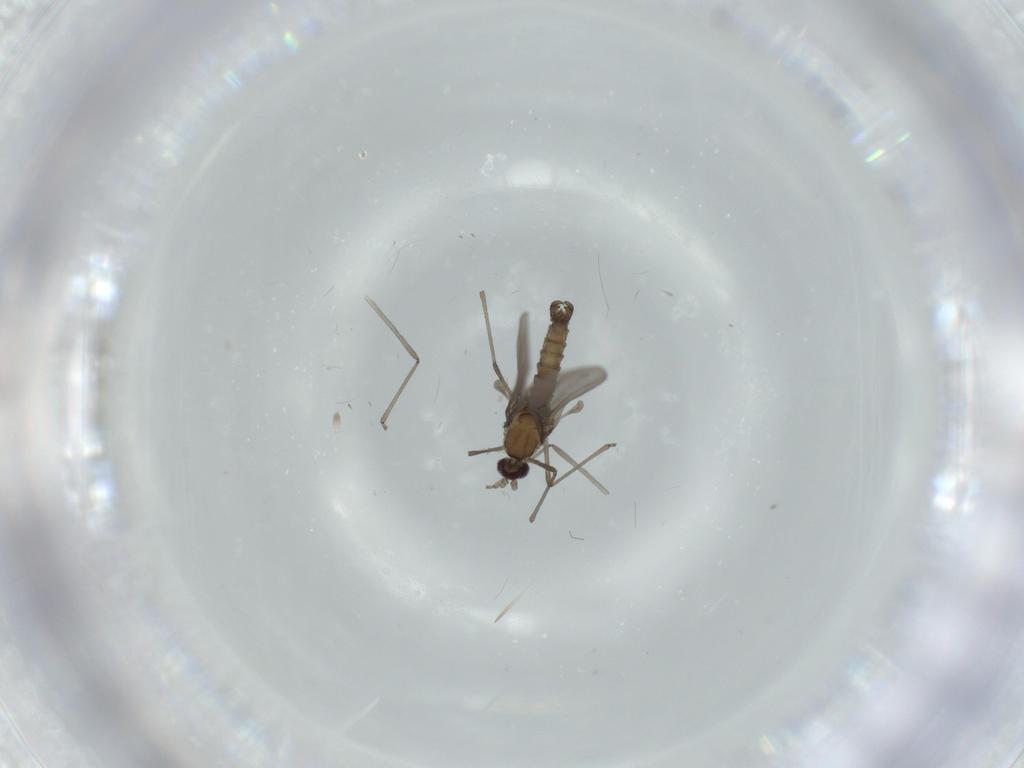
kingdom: Animalia
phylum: Arthropoda
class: Insecta
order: Diptera
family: Cecidomyiidae
